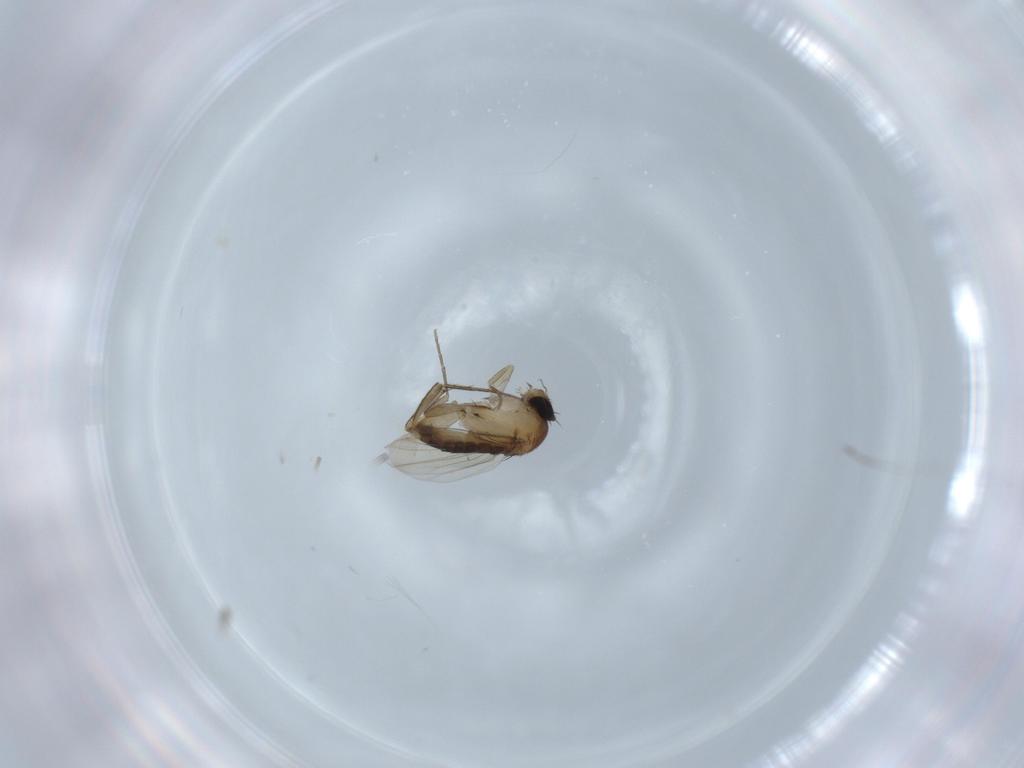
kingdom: Animalia
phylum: Arthropoda
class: Insecta
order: Diptera
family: Phoridae
